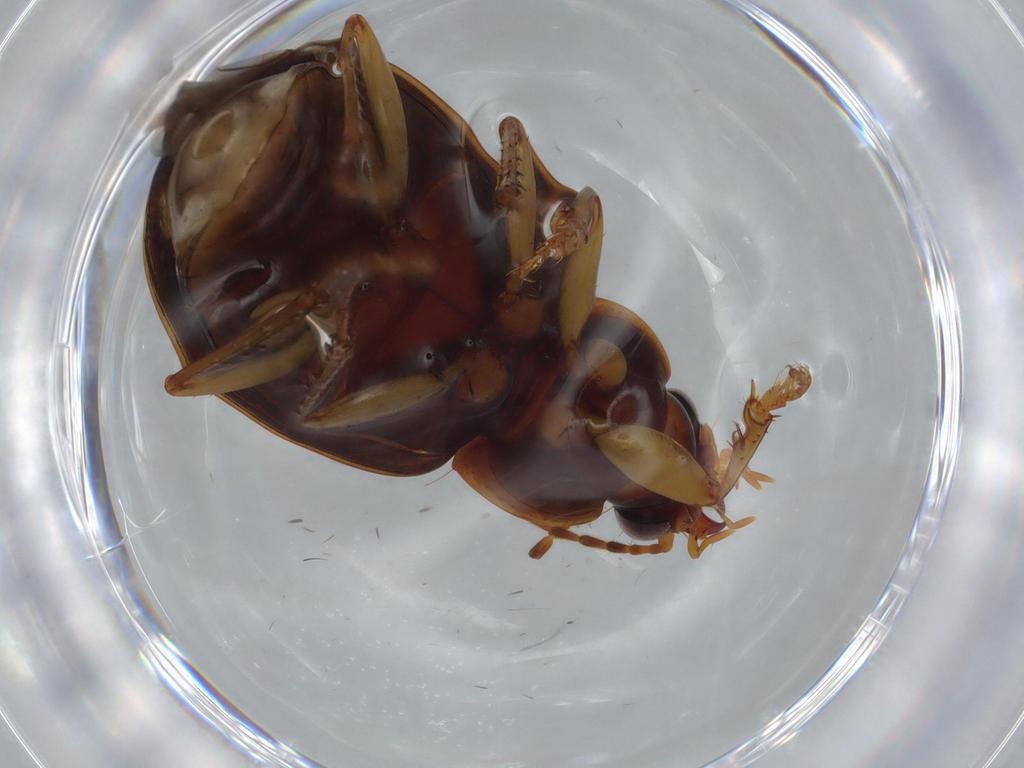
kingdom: Animalia
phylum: Arthropoda
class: Insecta
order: Coleoptera
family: Carabidae
